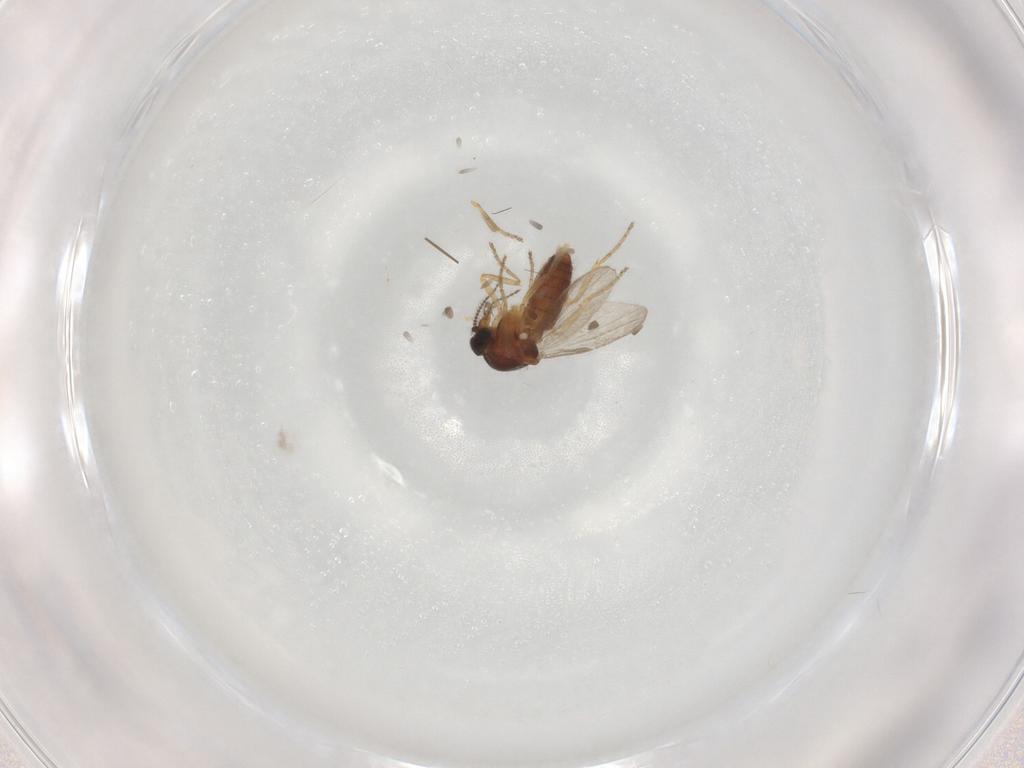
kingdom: Animalia
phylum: Arthropoda
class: Insecta
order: Diptera
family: Ceratopogonidae
